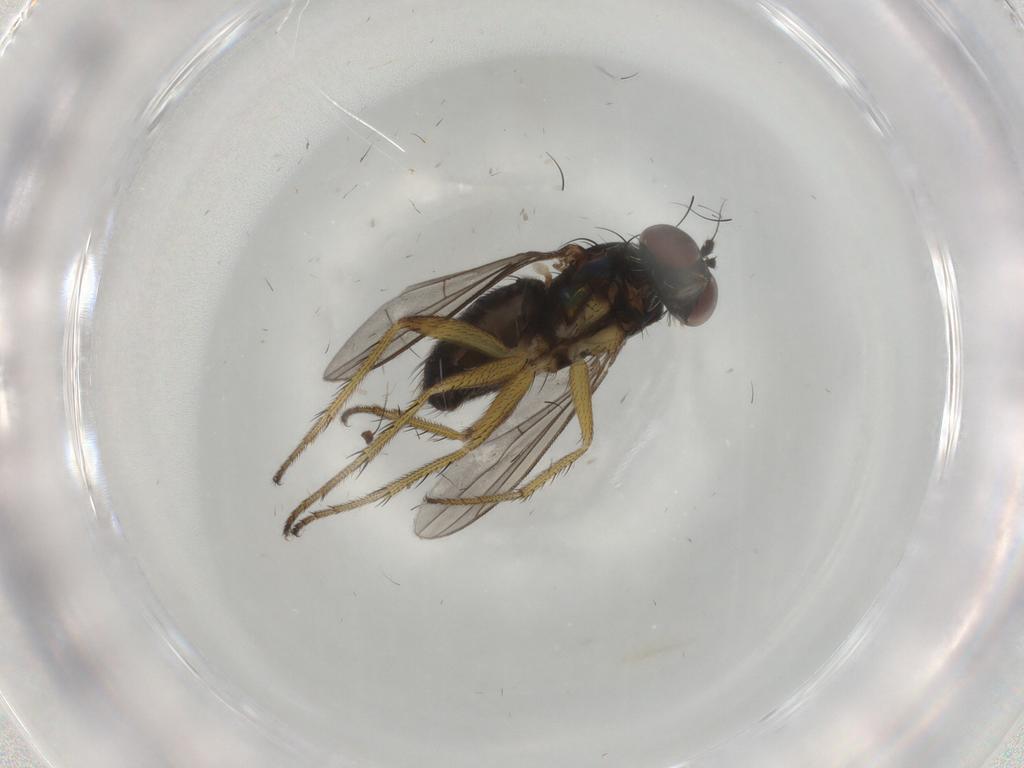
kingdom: Animalia
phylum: Arthropoda
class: Insecta
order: Diptera
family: Dolichopodidae
